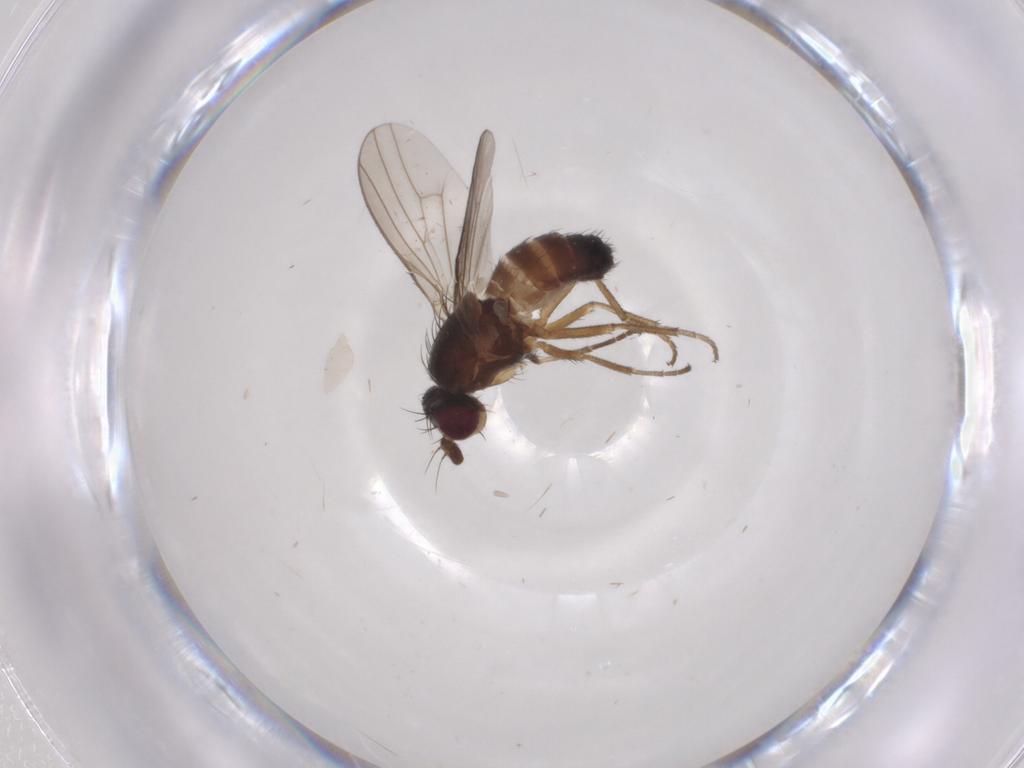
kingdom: Animalia
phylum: Arthropoda
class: Insecta
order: Diptera
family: Heleomyzidae
